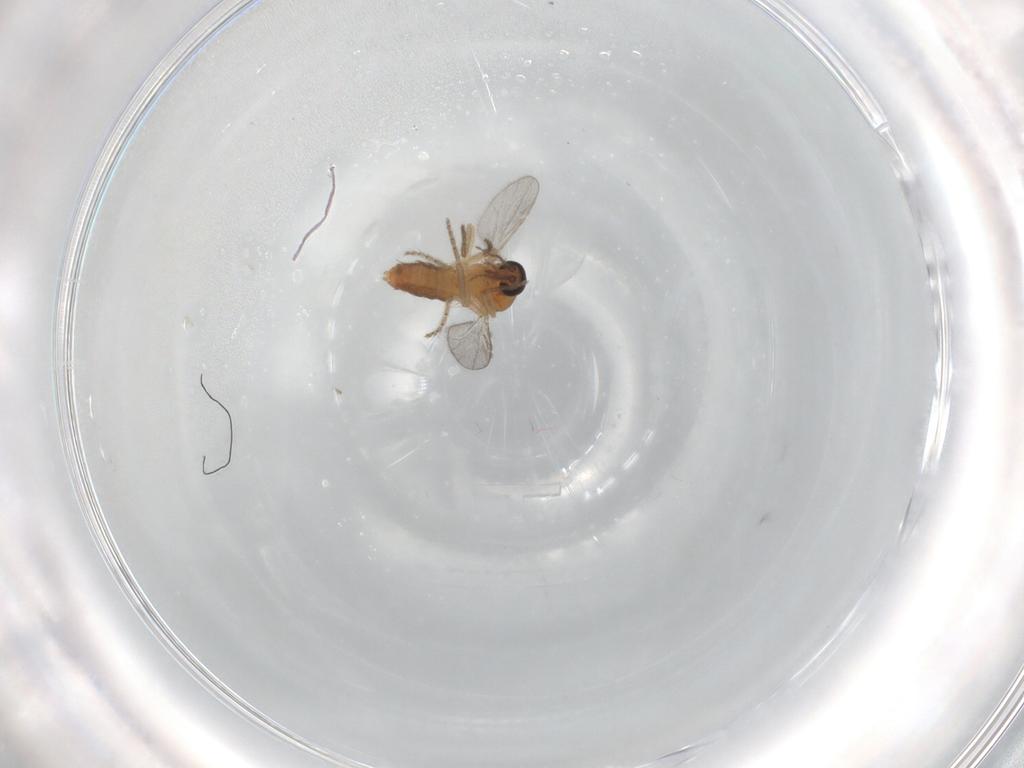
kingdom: Animalia
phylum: Arthropoda
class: Insecta
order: Diptera
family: Ceratopogonidae
